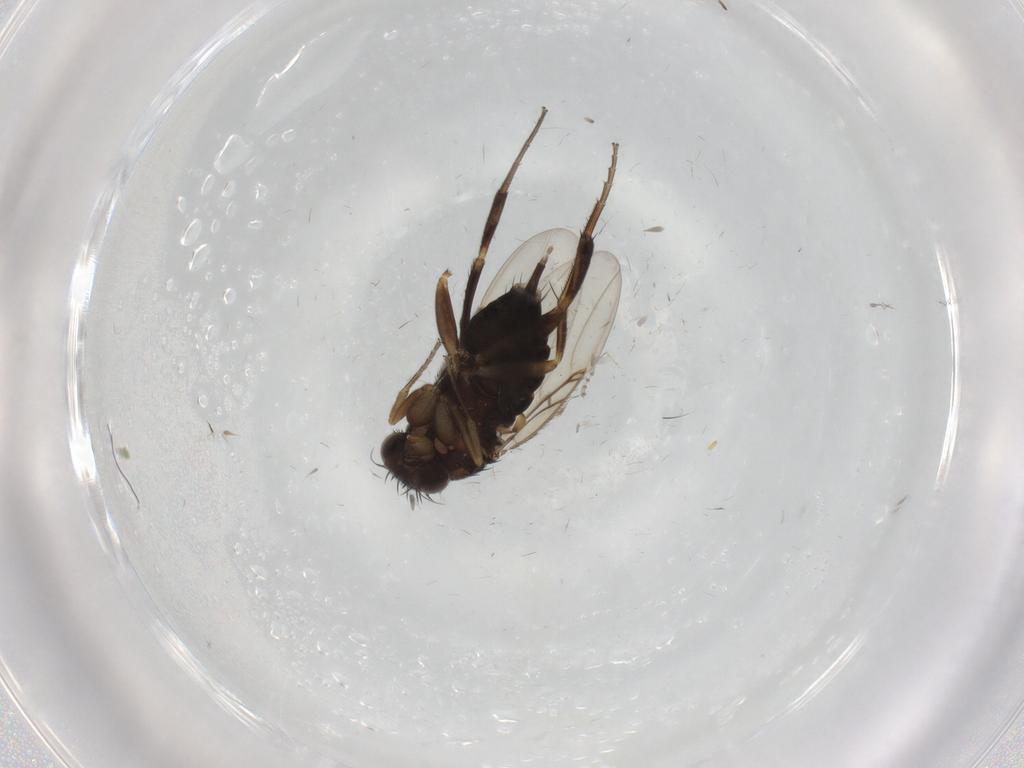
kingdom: Animalia
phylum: Arthropoda
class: Insecta
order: Diptera
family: Phoridae
